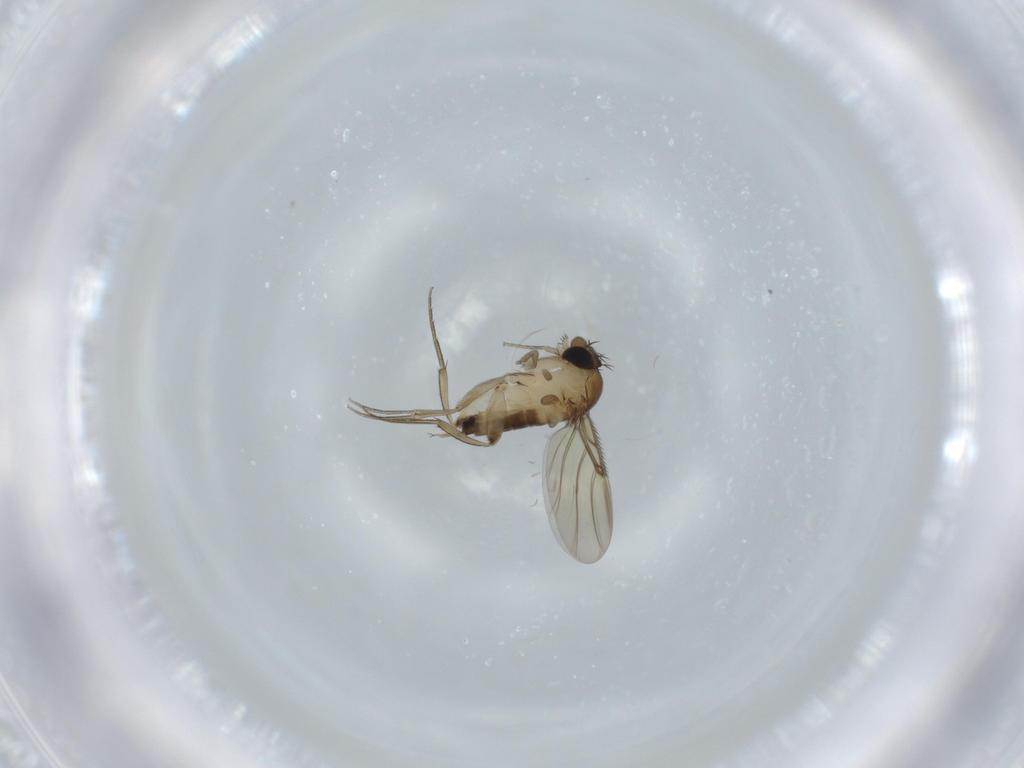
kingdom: Animalia
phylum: Arthropoda
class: Insecta
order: Diptera
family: Phoridae
